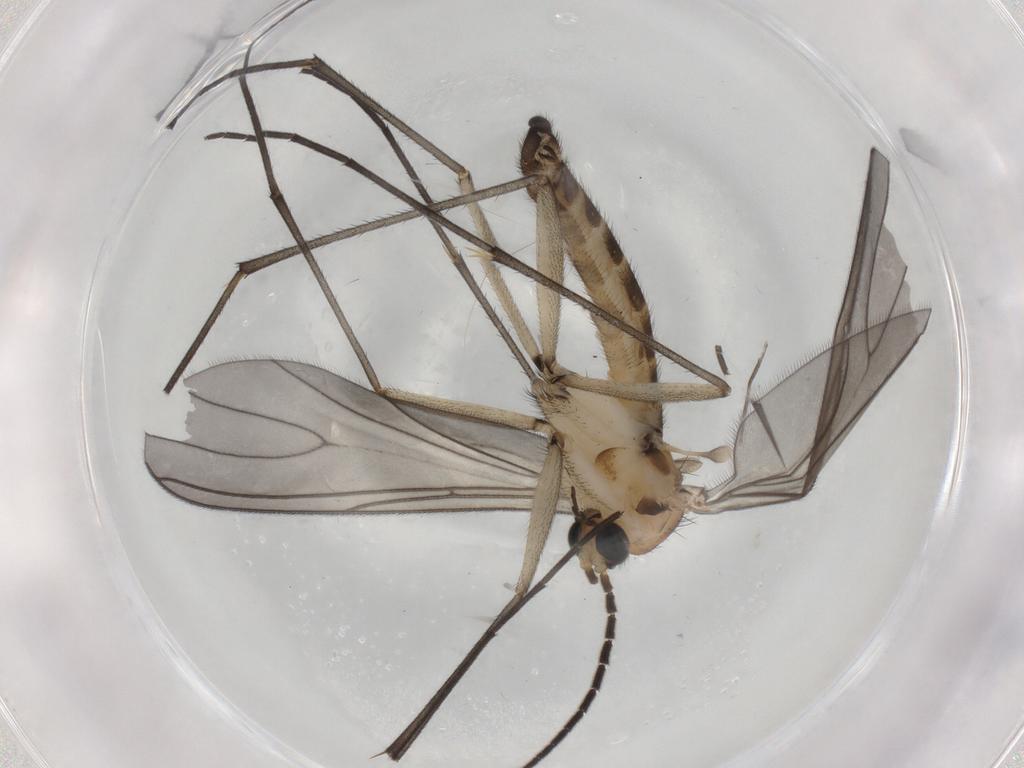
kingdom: Animalia
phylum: Arthropoda
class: Insecta
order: Diptera
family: Sciaridae
